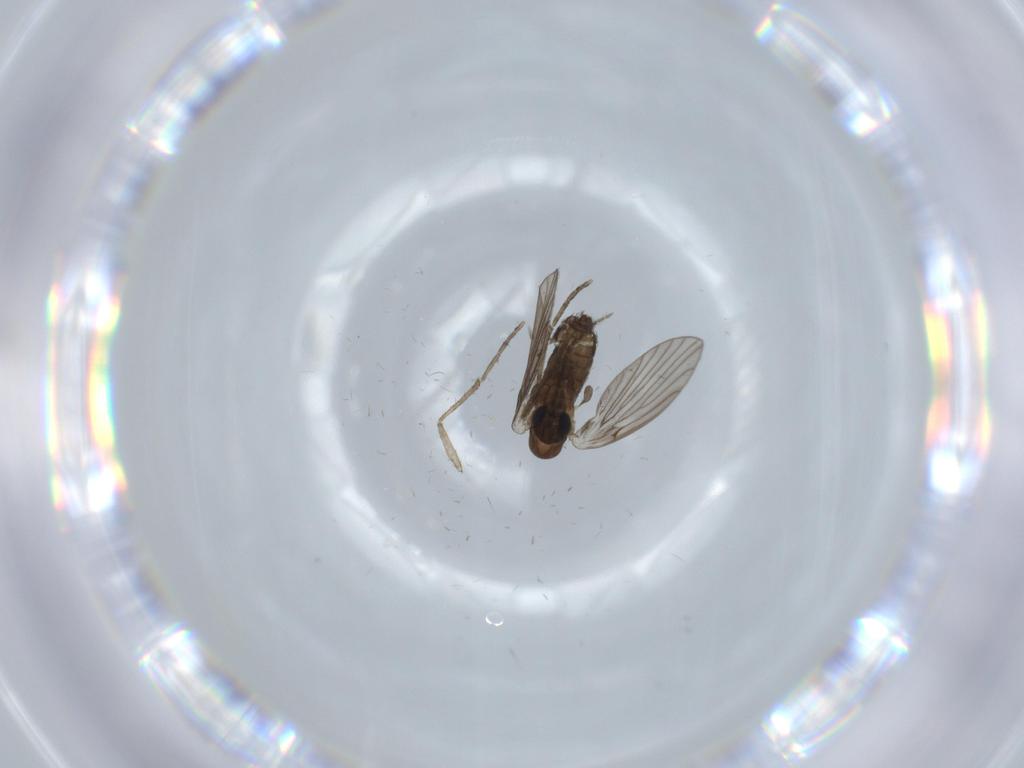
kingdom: Animalia
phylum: Arthropoda
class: Insecta
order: Diptera
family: Psychodidae
